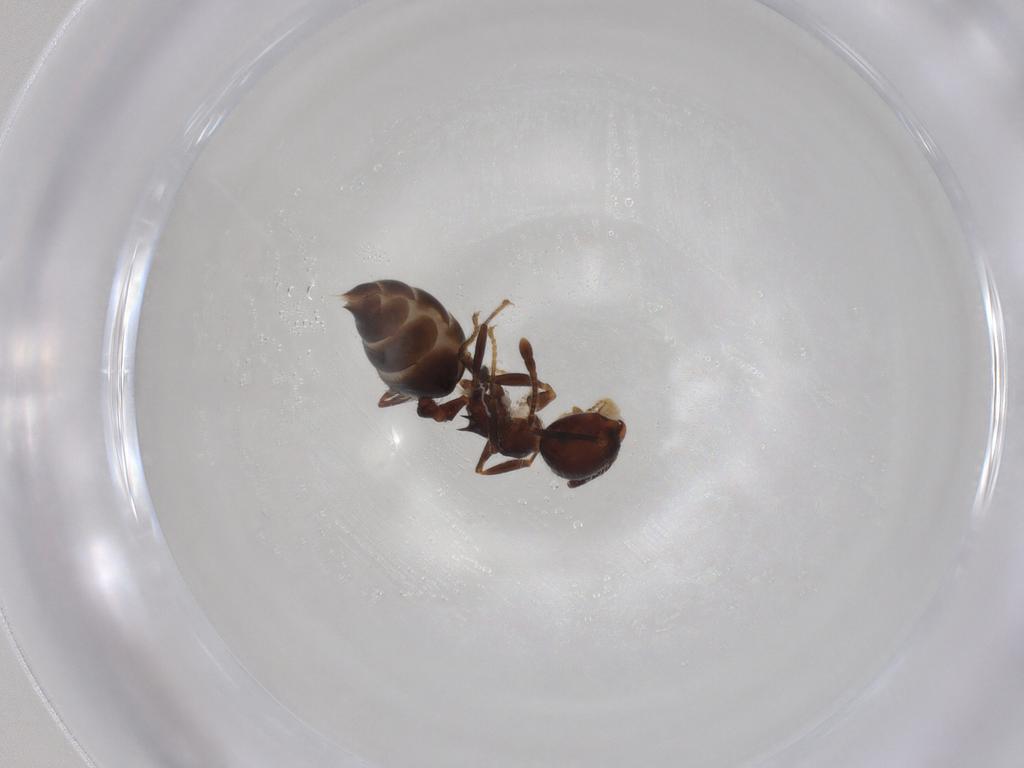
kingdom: Animalia
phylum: Arthropoda
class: Insecta
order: Hymenoptera
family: Formicidae
